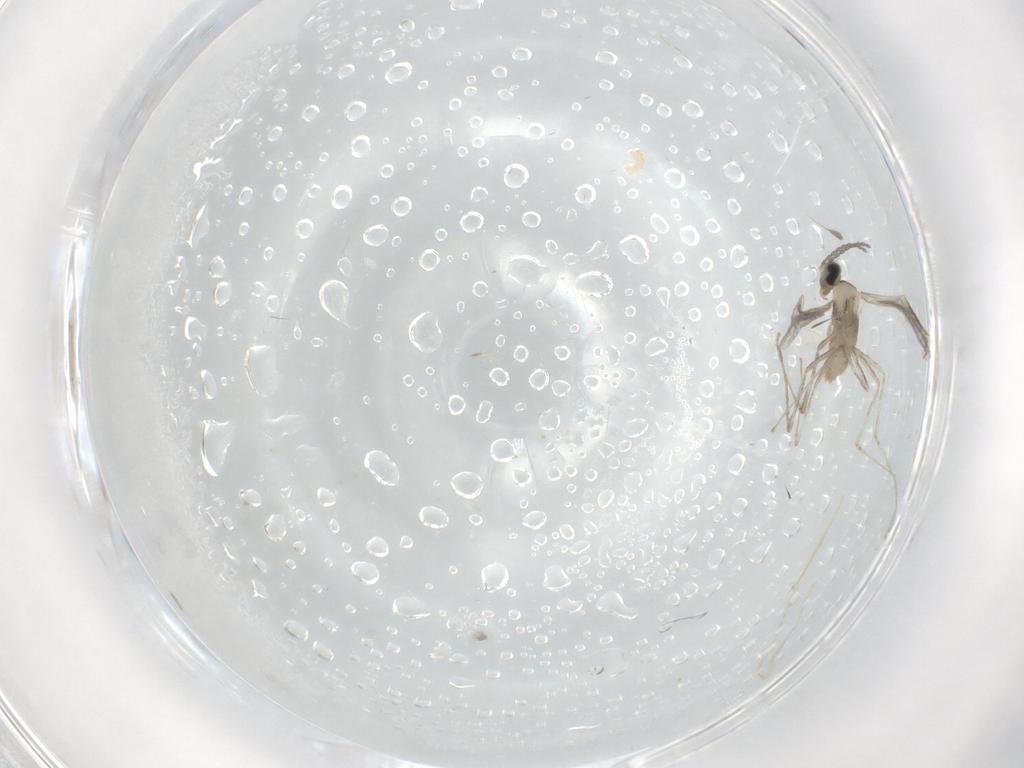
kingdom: Animalia
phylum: Arthropoda
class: Insecta
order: Diptera
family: Cecidomyiidae
